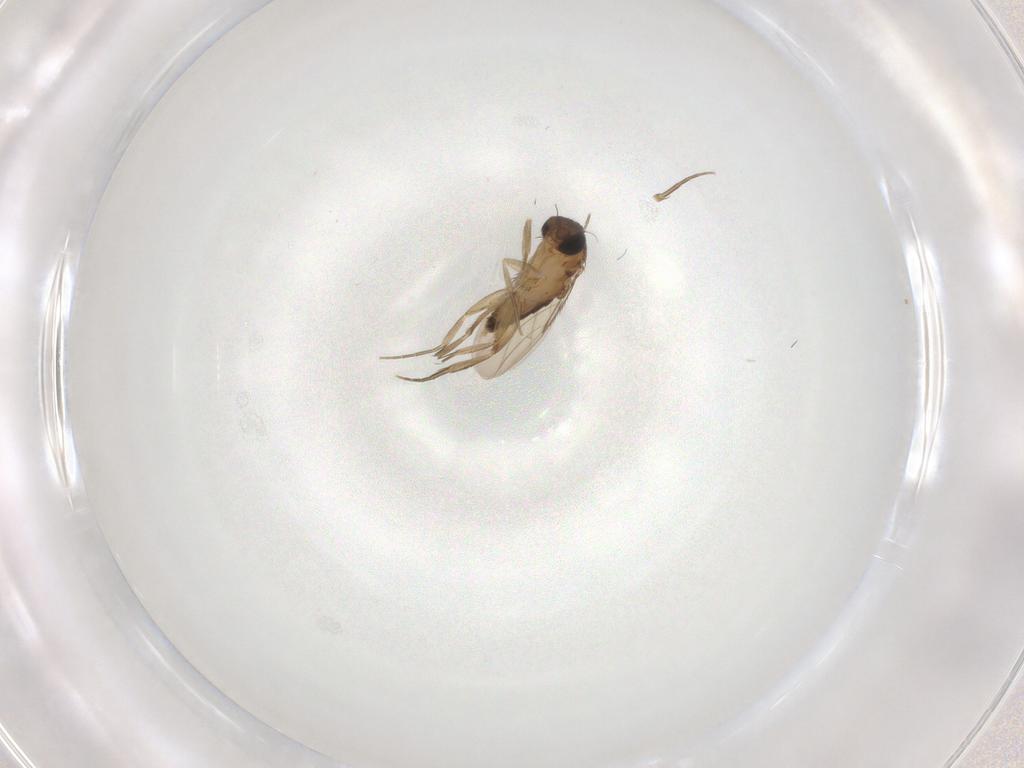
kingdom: Animalia
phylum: Arthropoda
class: Insecta
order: Diptera
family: Phoridae
